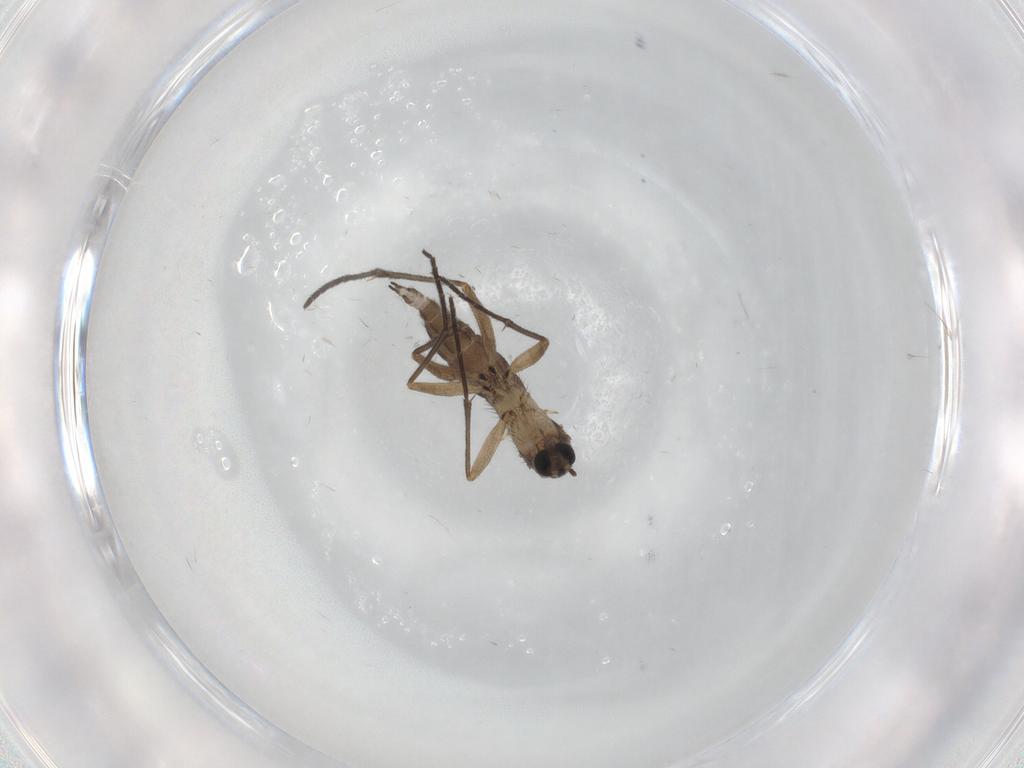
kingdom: Animalia
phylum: Arthropoda
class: Insecta
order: Diptera
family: Sciaridae
